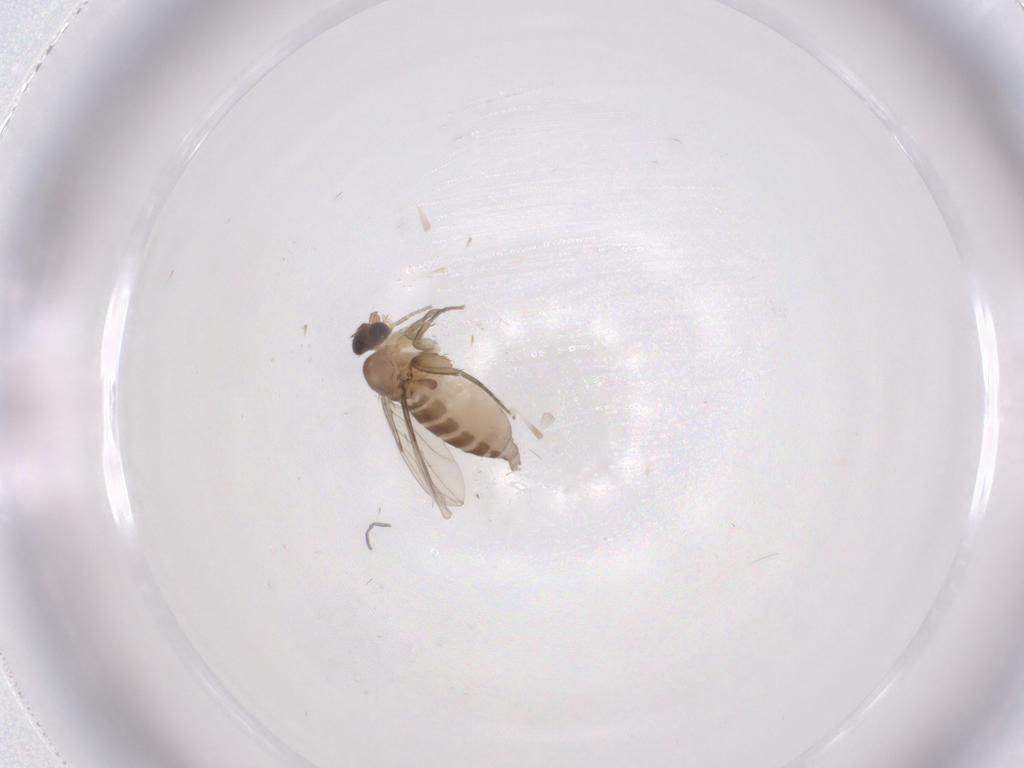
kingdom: Animalia
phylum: Arthropoda
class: Insecta
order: Diptera
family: Phoridae
